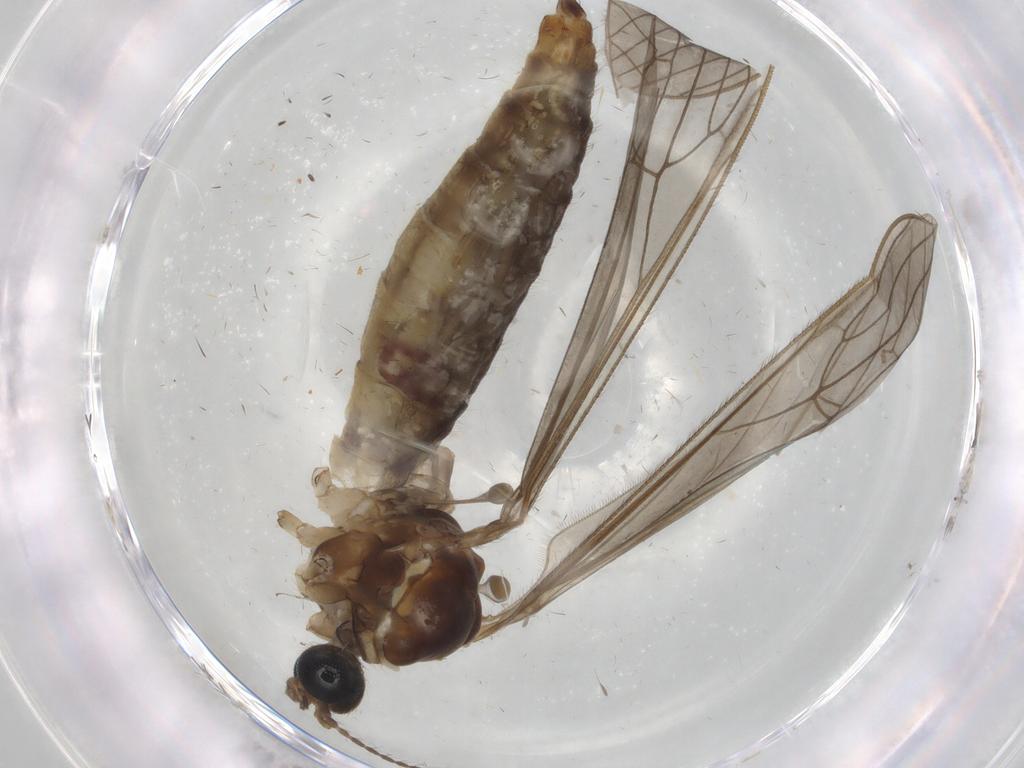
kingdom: Animalia
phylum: Arthropoda
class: Insecta
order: Diptera
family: Limoniidae
